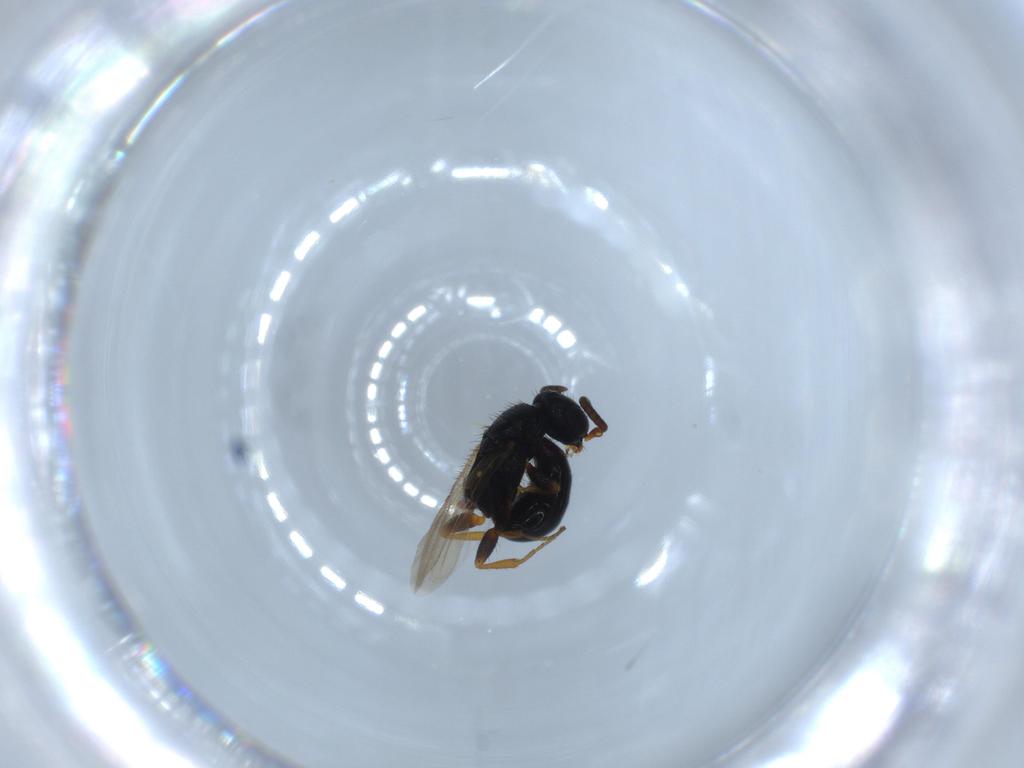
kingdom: Animalia
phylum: Arthropoda
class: Insecta
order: Hymenoptera
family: Bethylidae
